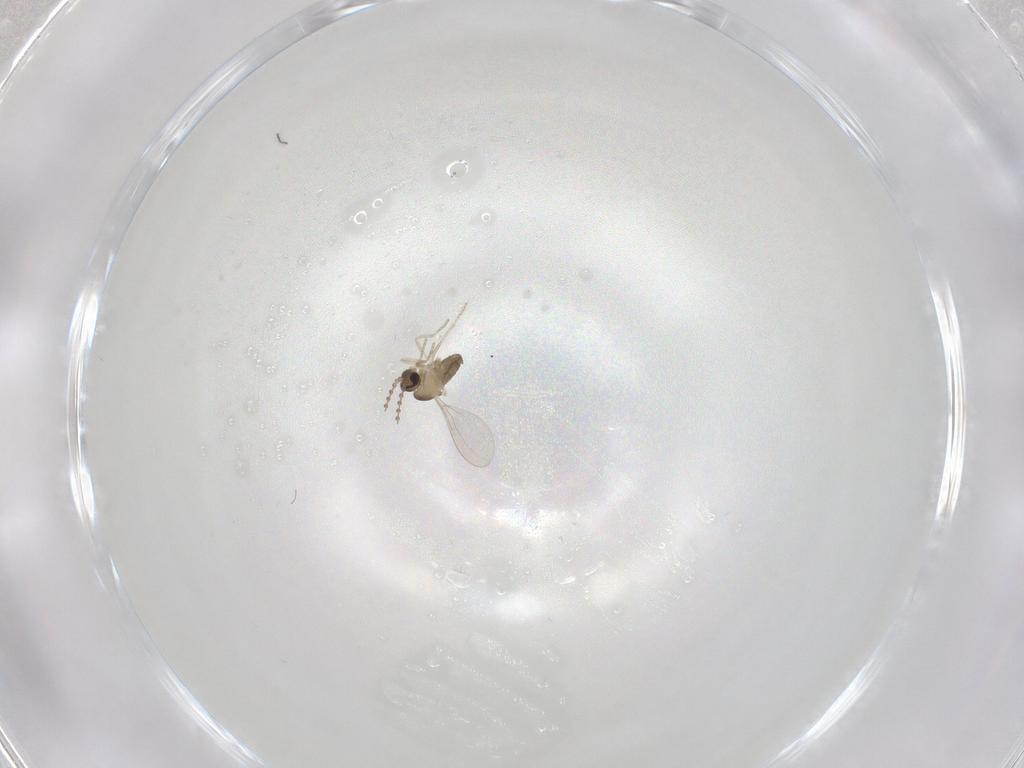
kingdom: Animalia
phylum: Arthropoda
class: Insecta
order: Diptera
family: Cecidomyiidae
